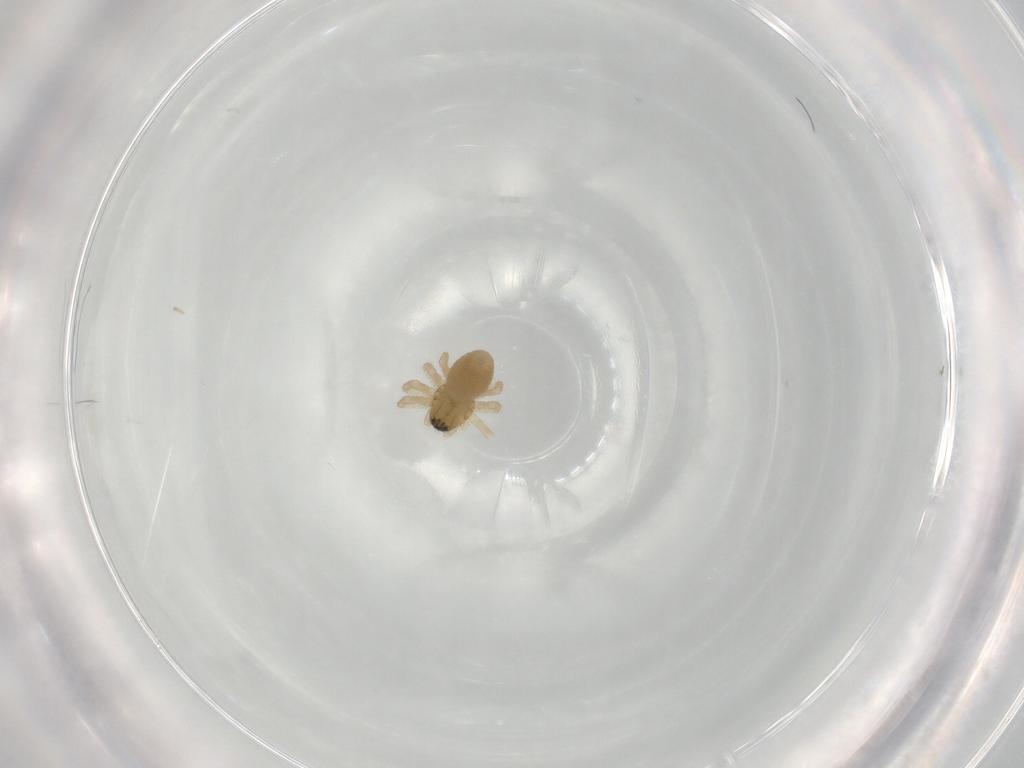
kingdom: Animalia
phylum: Arthropoda
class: Arachnida
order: Araneae
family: Linyphiidae
